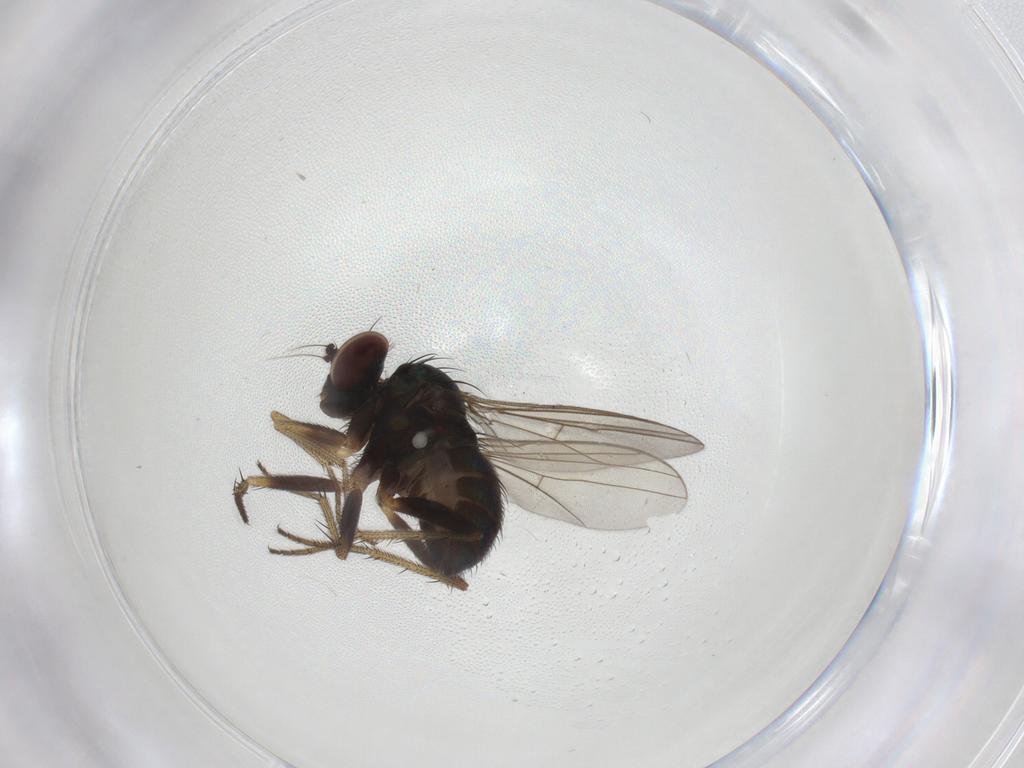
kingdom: Animalia
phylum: Arthropoda
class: Insecta
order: Diptera
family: Dolichopodidae
